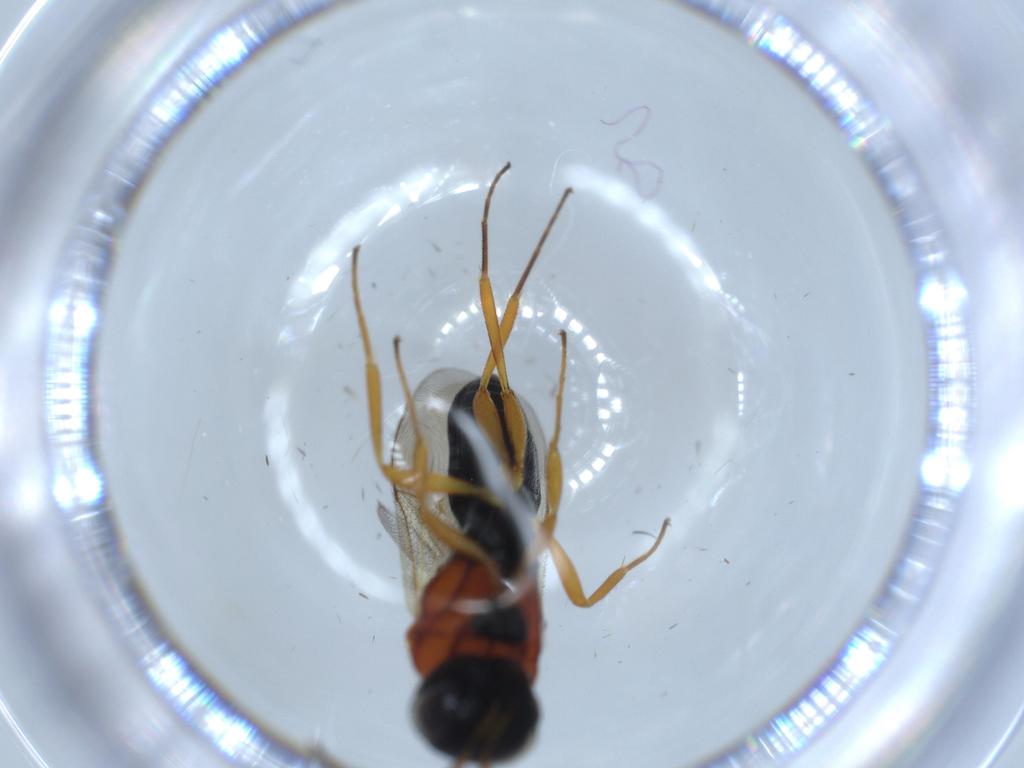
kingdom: Animalia
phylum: Arthropoda
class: Insecta
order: Hymenoptera
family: Scelionidae
